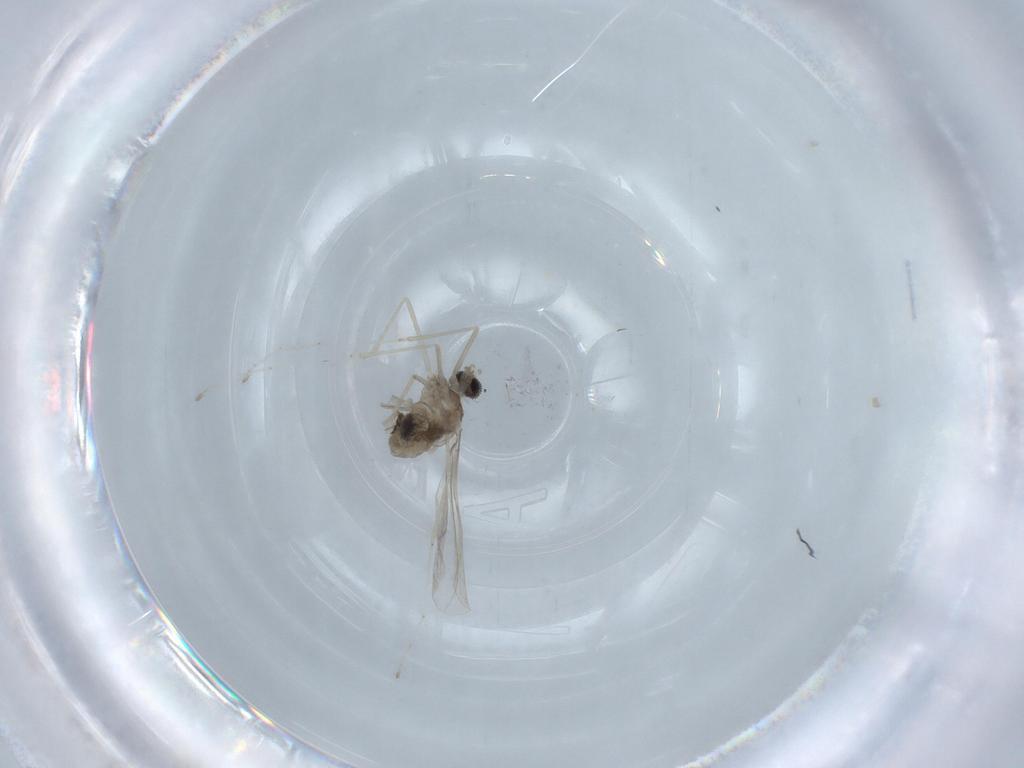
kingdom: Animalia
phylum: Arthropoda
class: Insecta
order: Diptera
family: Cecidomyiidae
